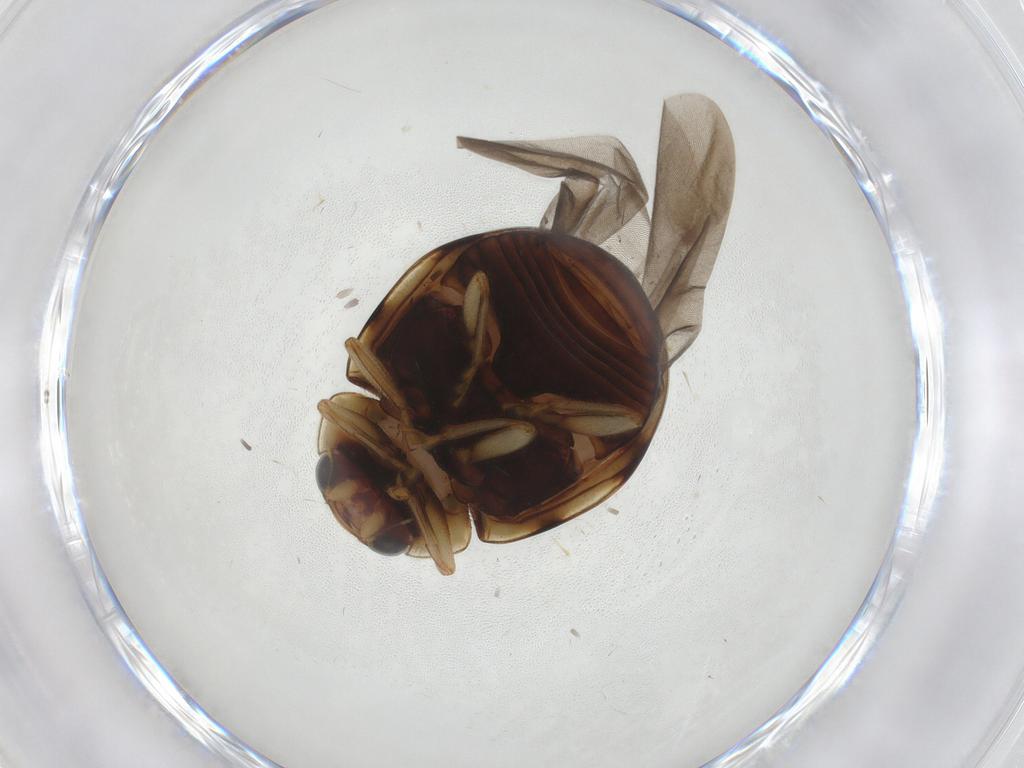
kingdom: Animalia
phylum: Arthropoda
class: Insecta
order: Coleoptera
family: Coccinellidae
